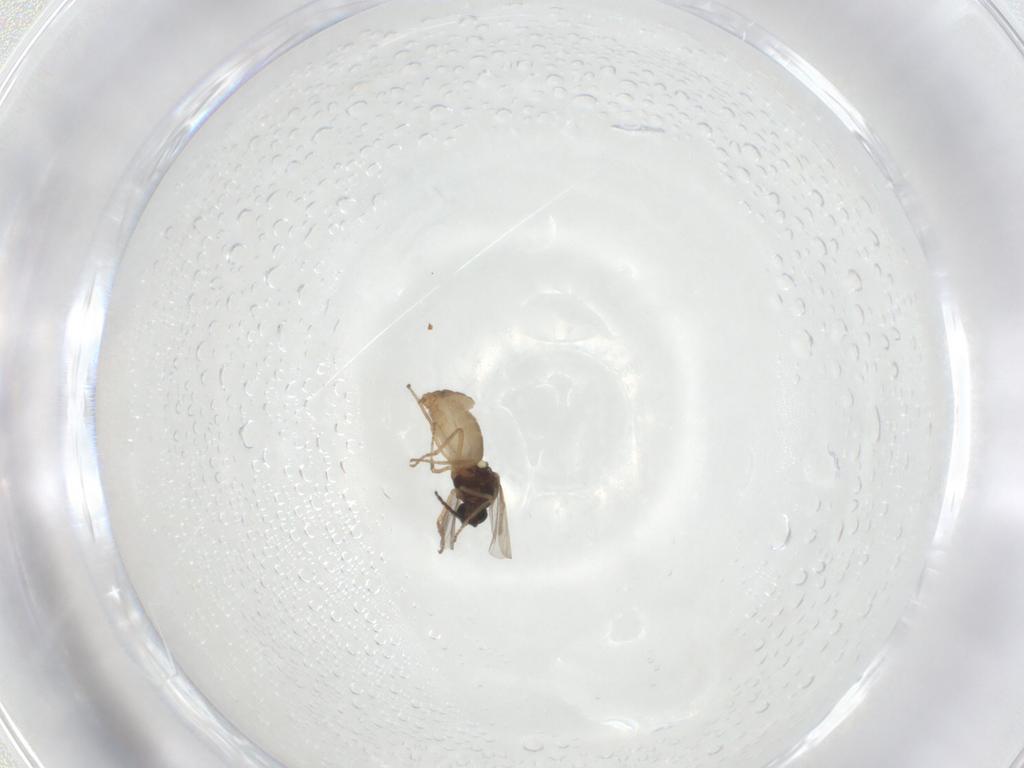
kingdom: Animalia
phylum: Arthropoda
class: Insecta
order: Diptera
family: Ceratopogonidae
